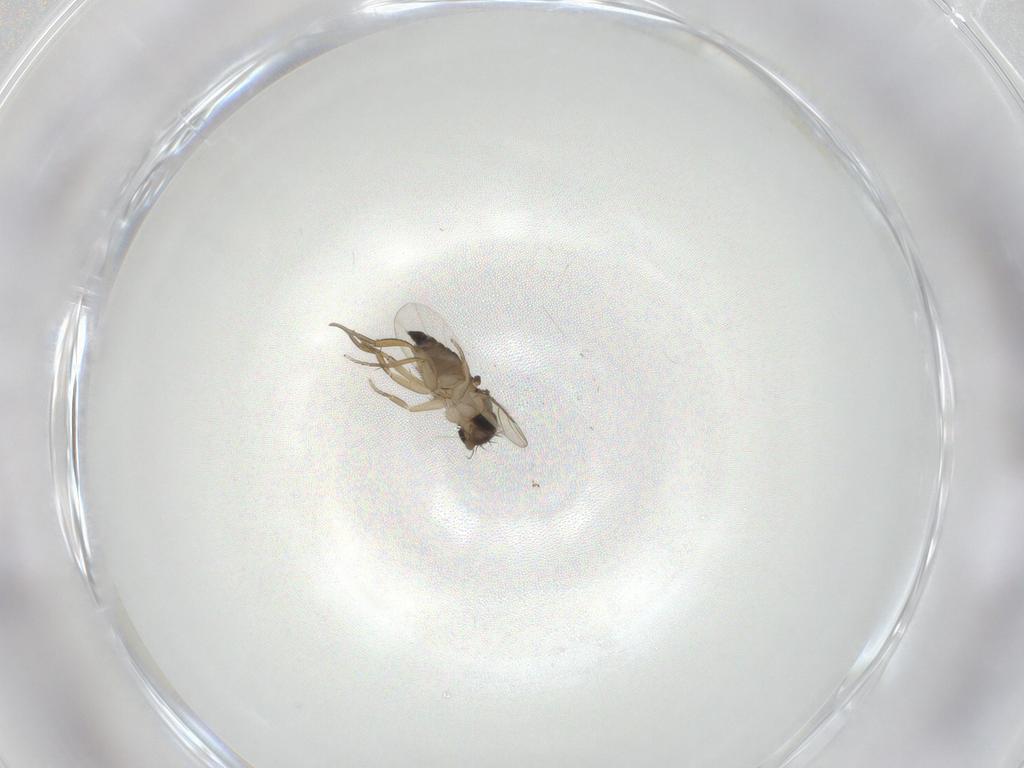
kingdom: Animalia
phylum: Arthropoda
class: Insecta
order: Diptera
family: Phoridae
